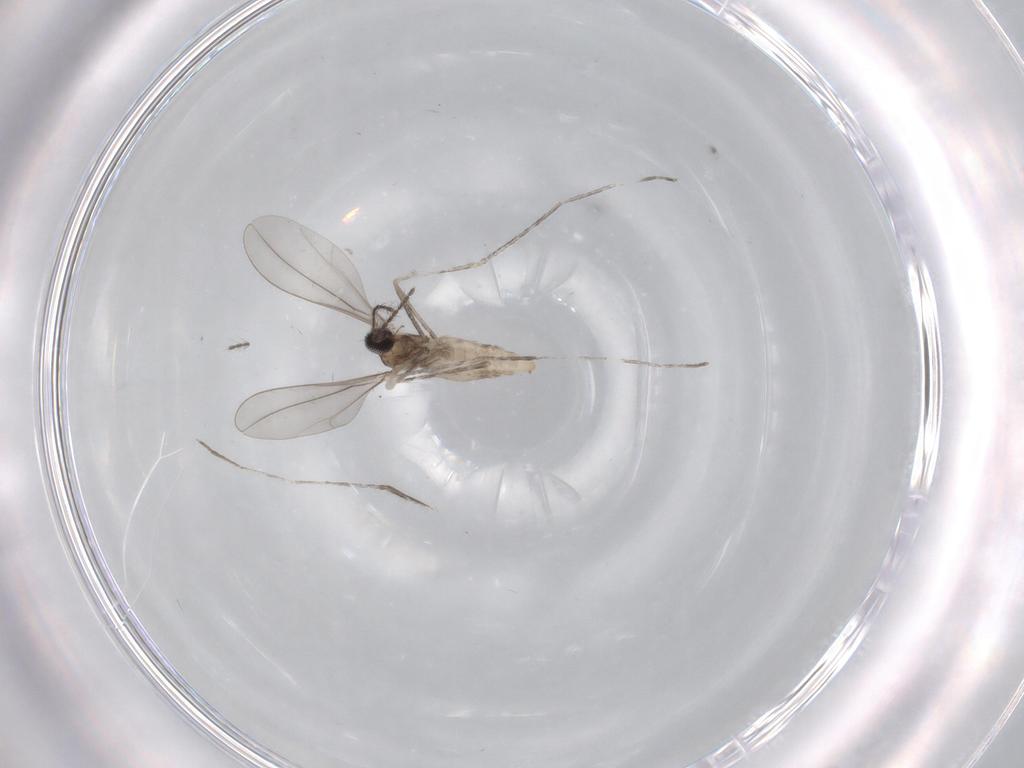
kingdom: Animalia
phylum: Arthropoda
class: Insecta
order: Diptera
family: Cecidomyiidae
